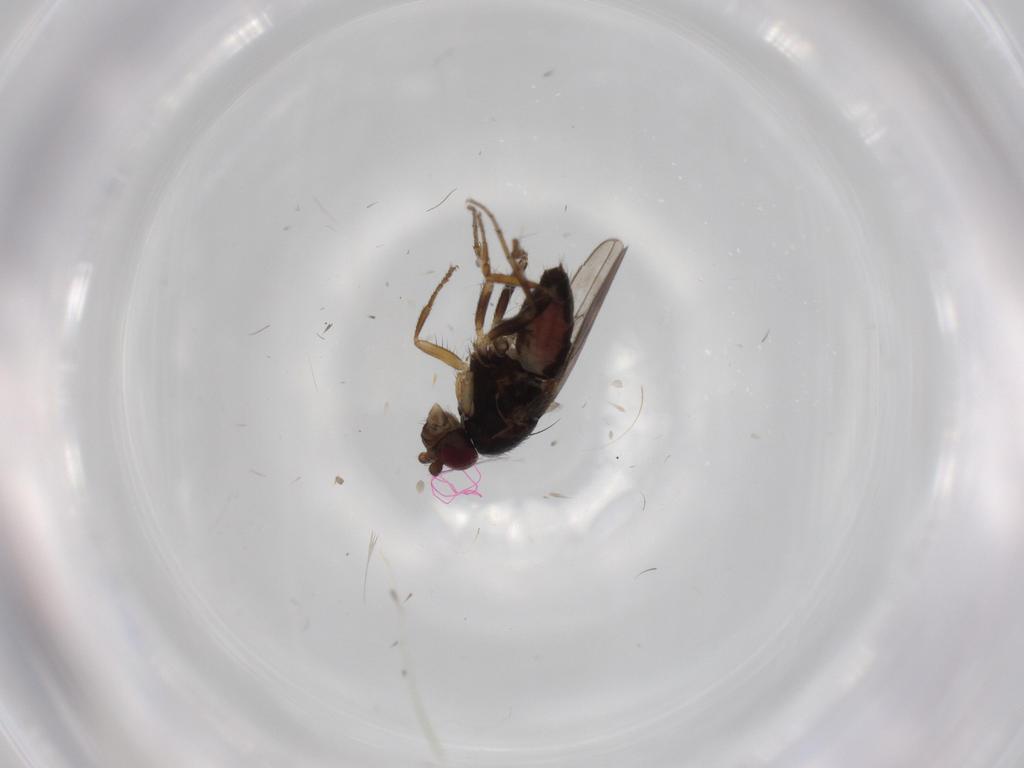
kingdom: Animalia
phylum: Arthropoda
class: Insecta
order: Diptera
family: Sphaeroceridae
